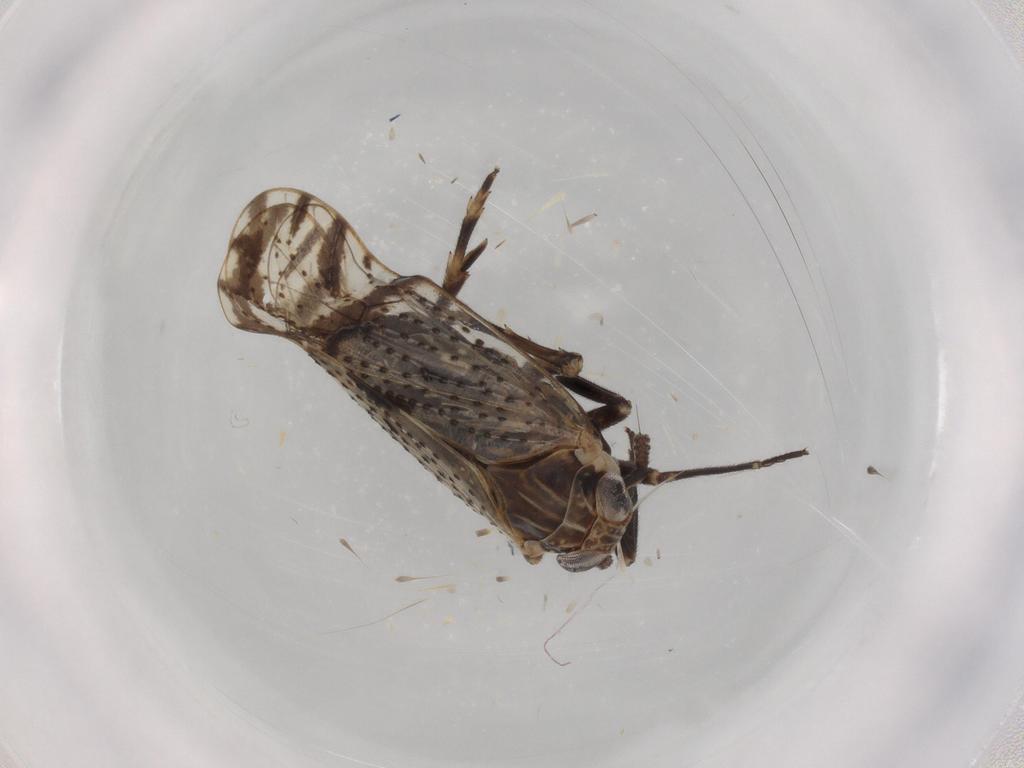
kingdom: Animalia
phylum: Arthropoda
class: Insecta
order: Hemiptera
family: Delphacidae
